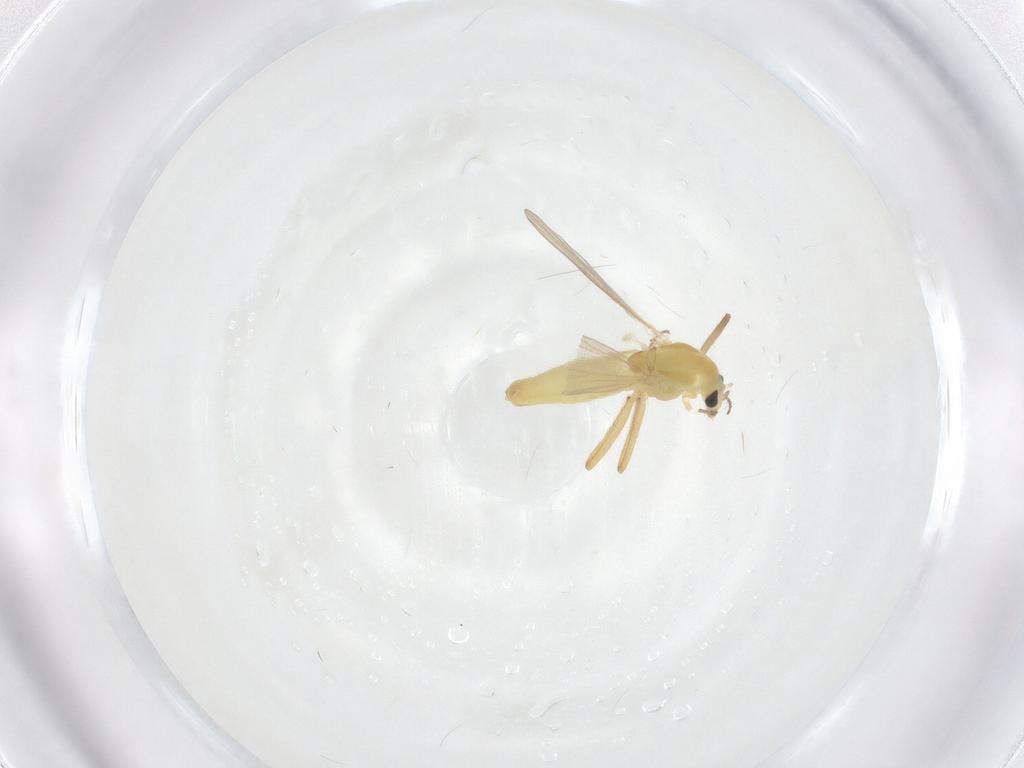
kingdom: Animalia
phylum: Arthropoda
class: Insecta
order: Diptera
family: Chironomidae
